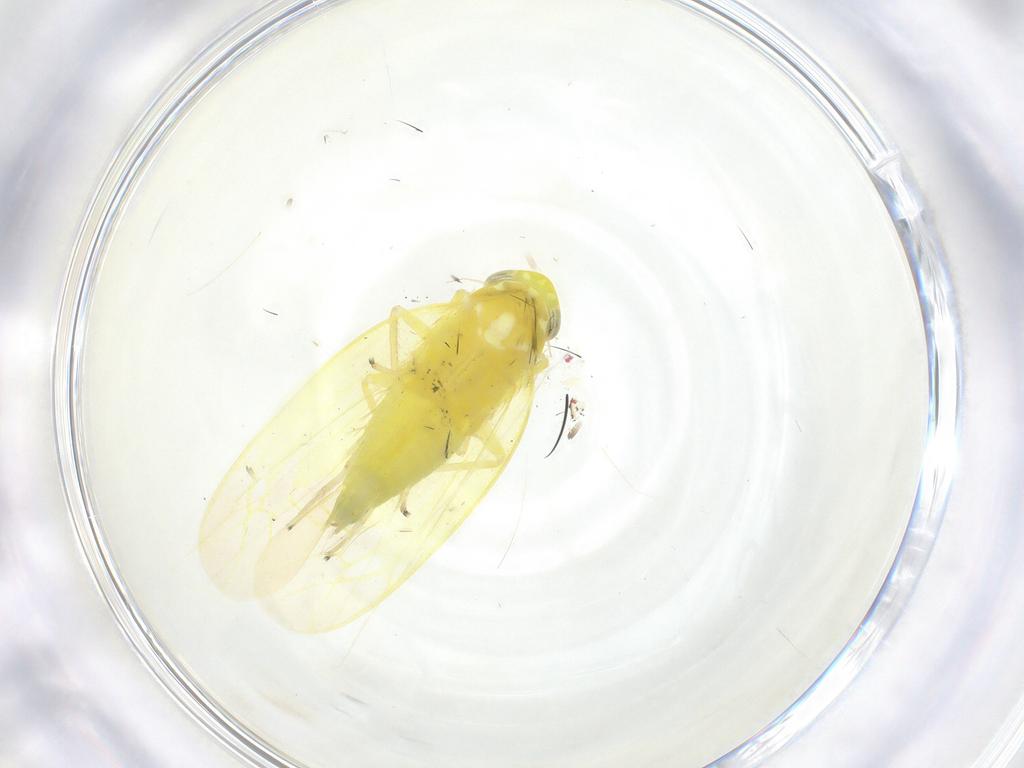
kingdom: Animalia
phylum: Arthropoda
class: Insecta
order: Hemiptera
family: Cicadellidae
